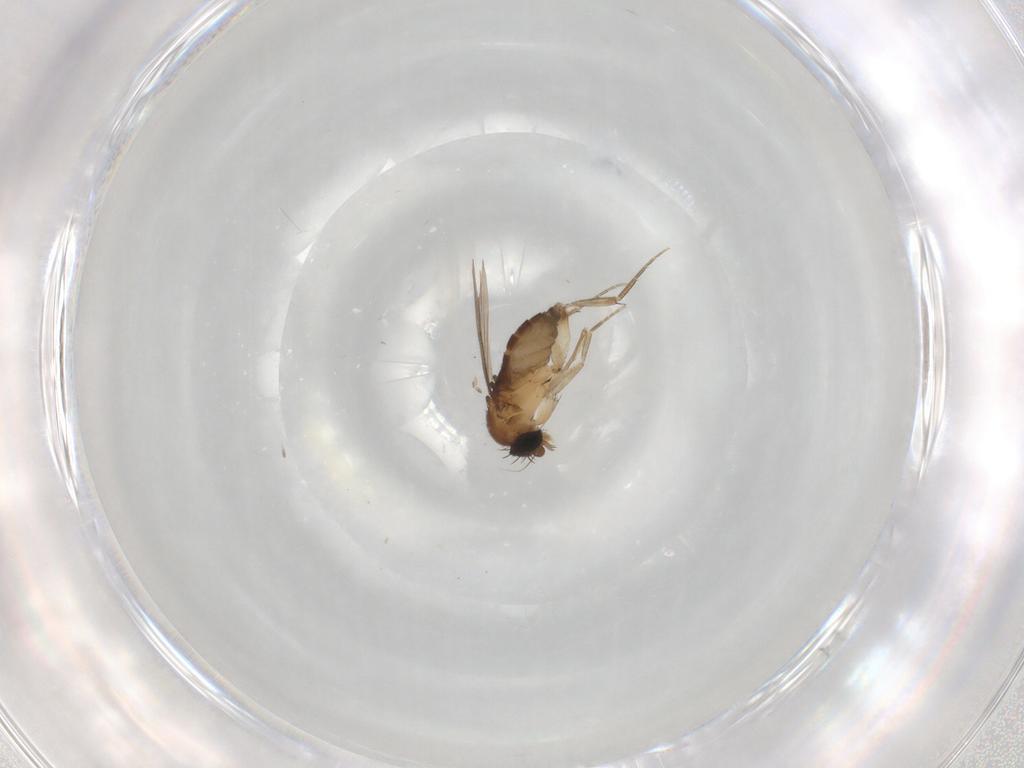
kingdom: Animalia
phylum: Arthropoda
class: Insecta
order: Diptera
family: Phoridae
